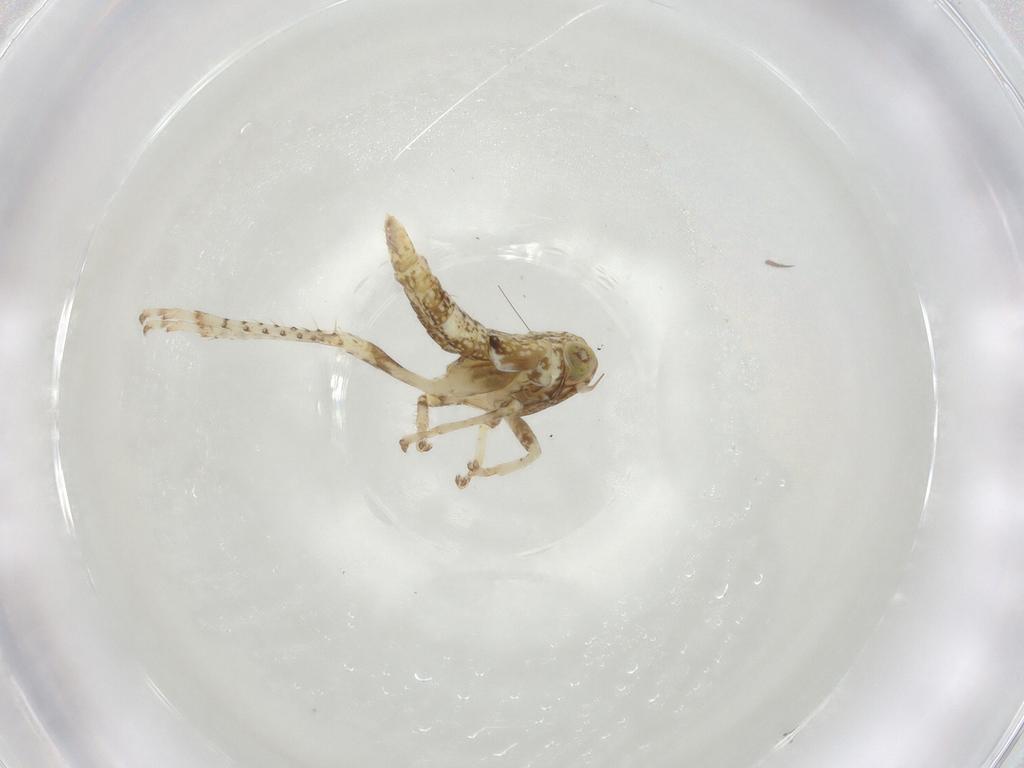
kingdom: Animalia
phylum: Arthropoda
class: Insecta
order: Hemiptera
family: Cicadellidae
